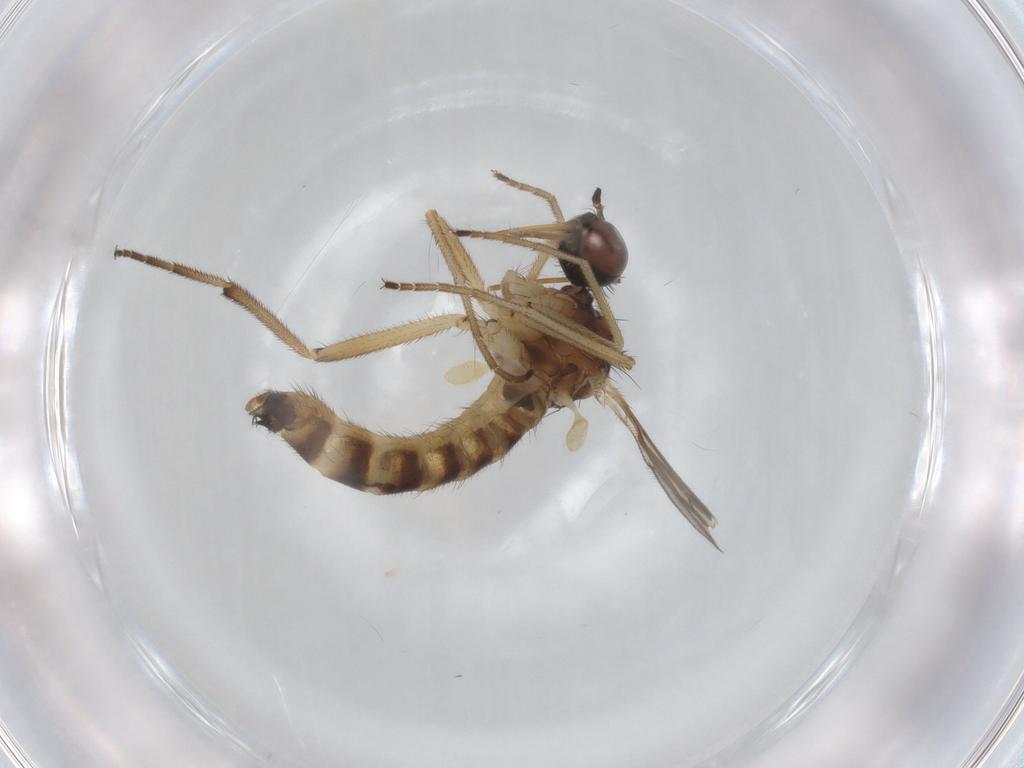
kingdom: Animalia
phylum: Arthropoda
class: Insecta
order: Diptera
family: Empididae
